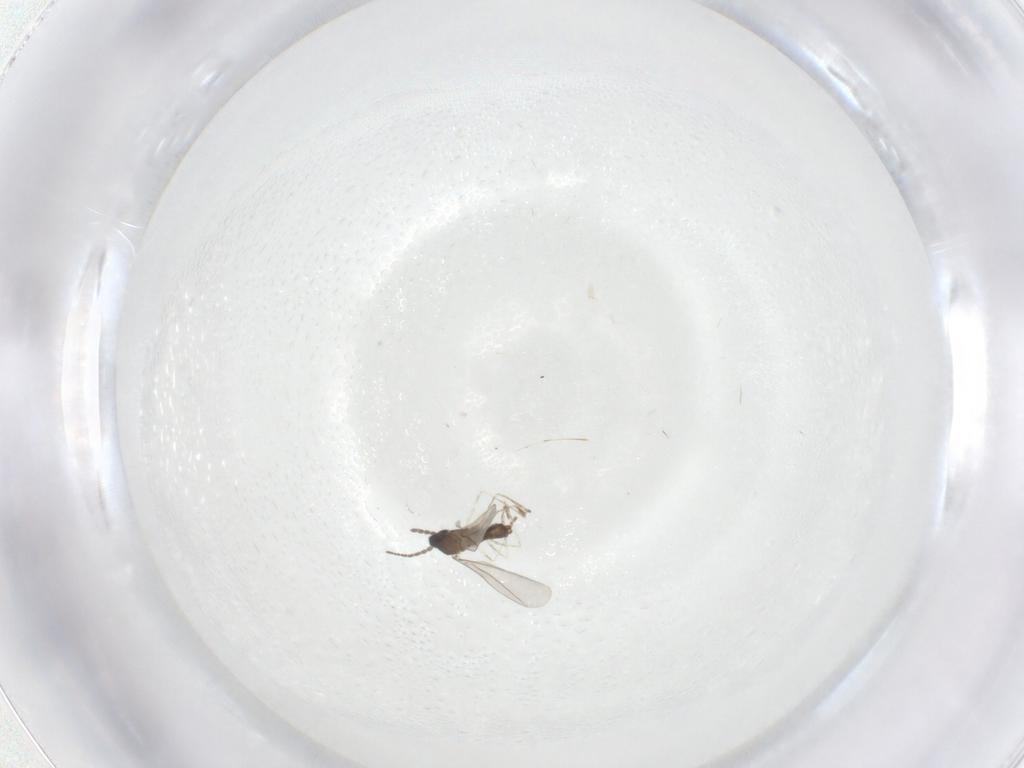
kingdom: Animalia
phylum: Arthropoda
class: Insecta
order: Diptera
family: Cecidomyiidae
